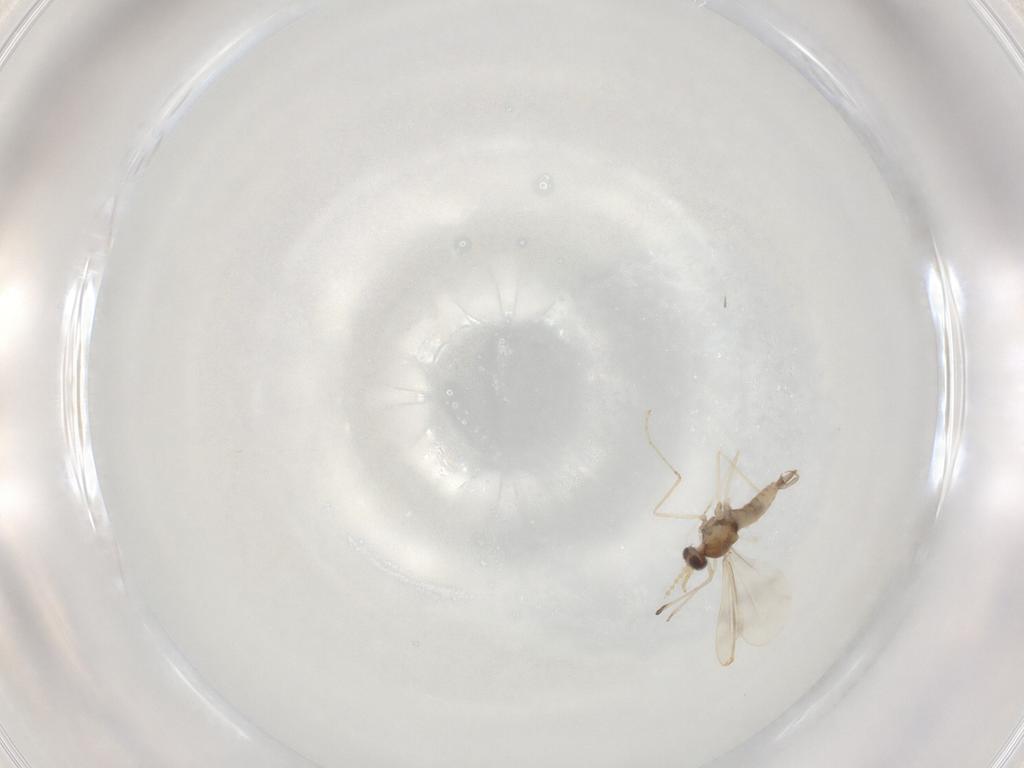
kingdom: Animalia
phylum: Arthropoda
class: Insecta
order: Diptera
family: Cecidomyiidae
